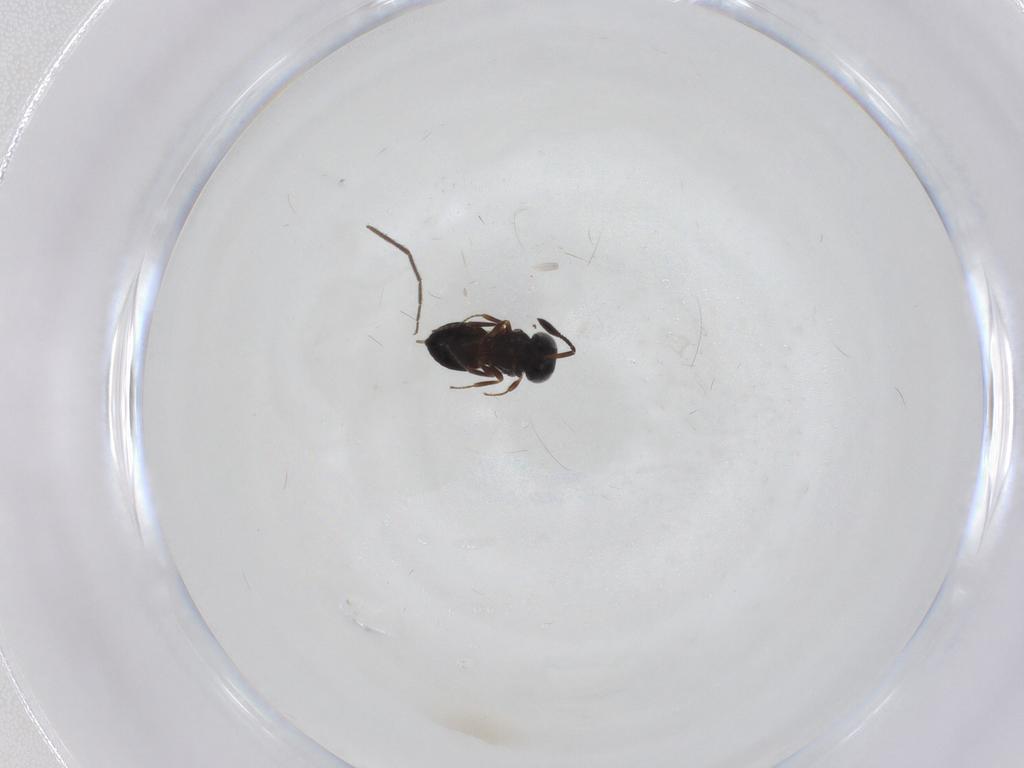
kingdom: Animalia
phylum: Arthropoda
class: Insecta
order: Hymenoptera
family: Scelionidae
